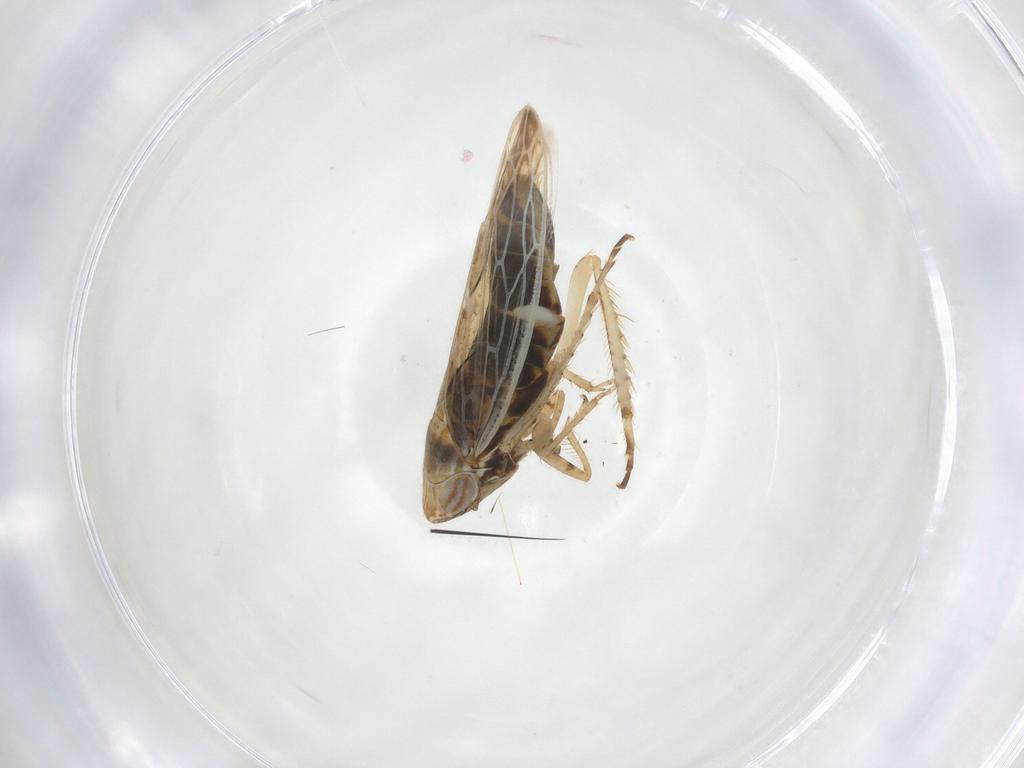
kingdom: Animalia
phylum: Arthropoda
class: Insecta
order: Hemiptera
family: Cicadellidae
